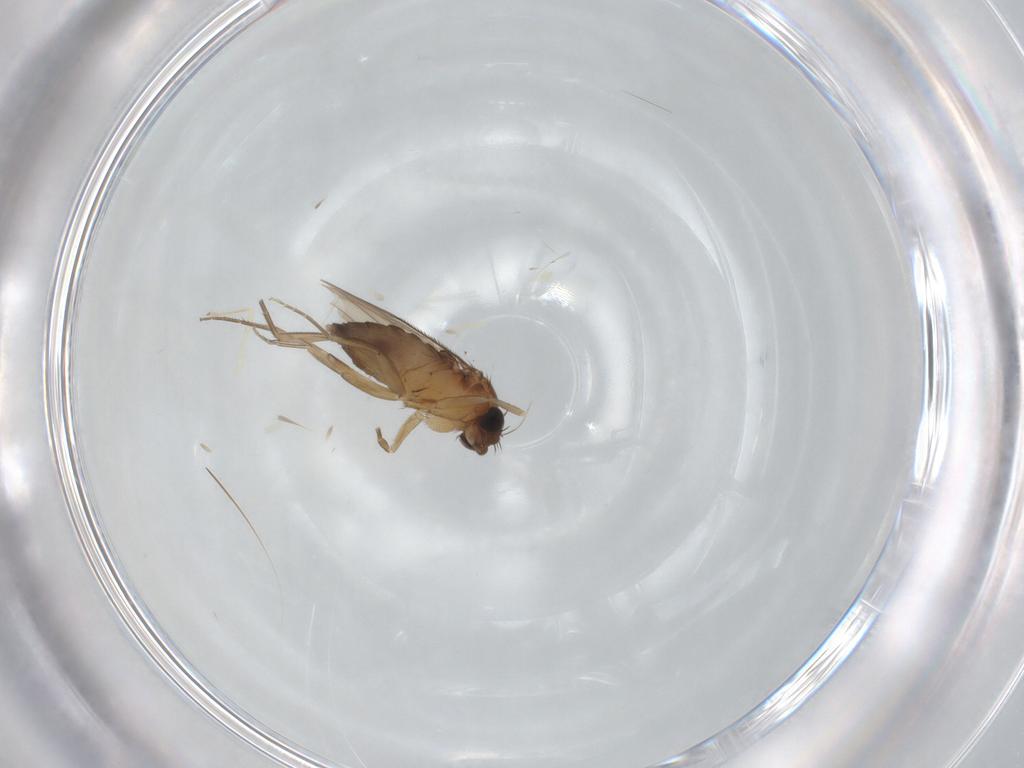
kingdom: Animalia
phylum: Arthropoda
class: Insecta
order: Diptera
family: Phoridae
